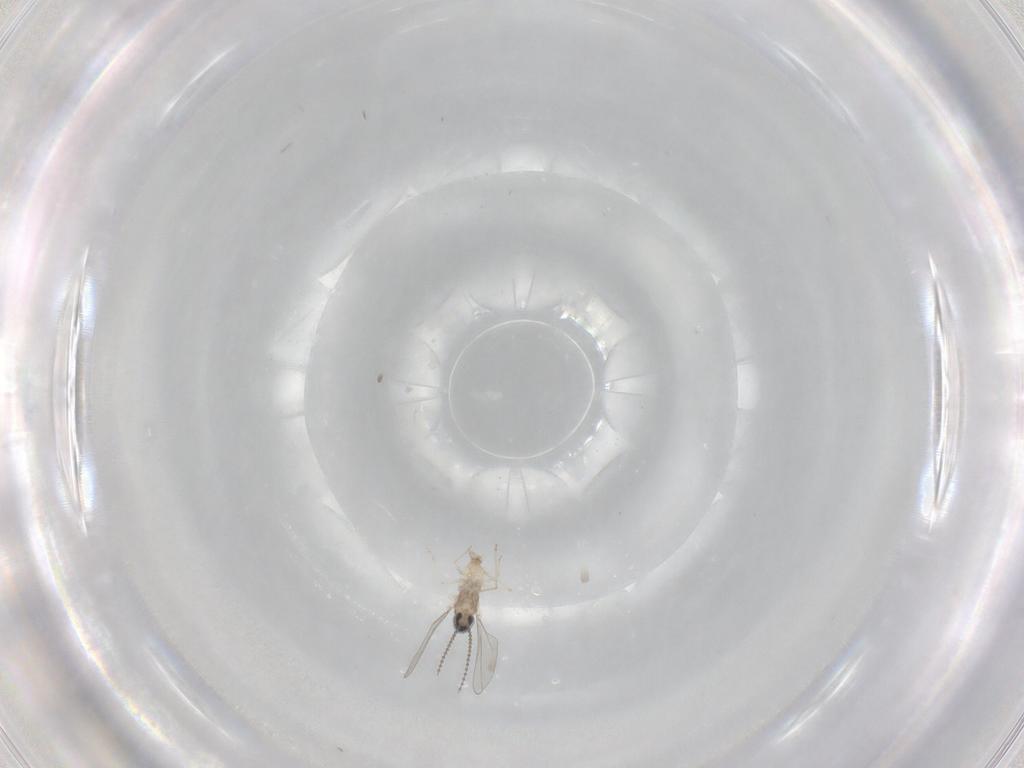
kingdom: Animalia
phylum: Arthropoda
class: Insecta
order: Diptera
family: Cecidomyiidae
